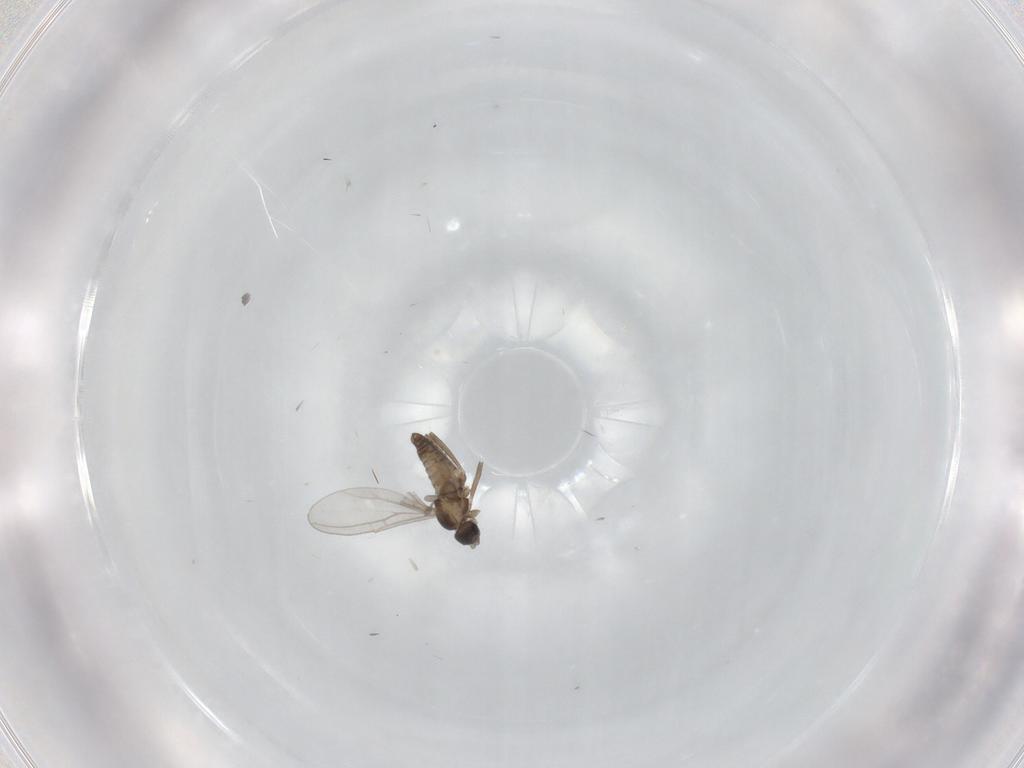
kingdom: Animalia
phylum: Arthropoda
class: Insecta
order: Diptera
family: Cecidomyiidae
